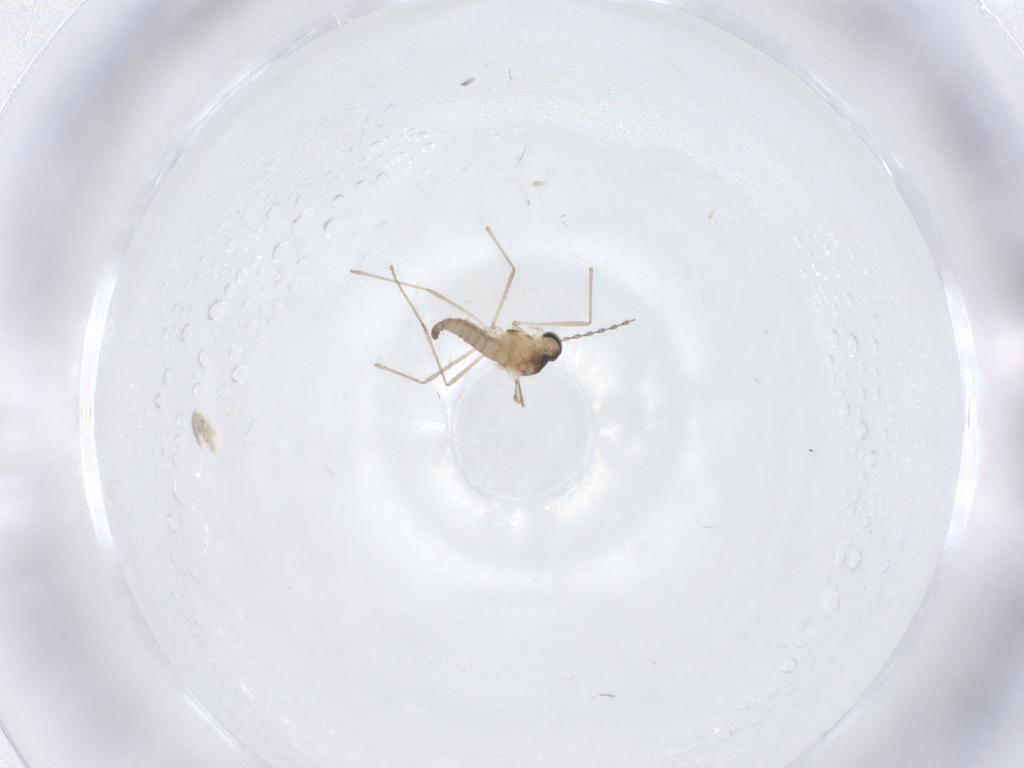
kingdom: Animalia
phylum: Arthropoda
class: Insecta
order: Diptera
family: Cecidomyiidae
